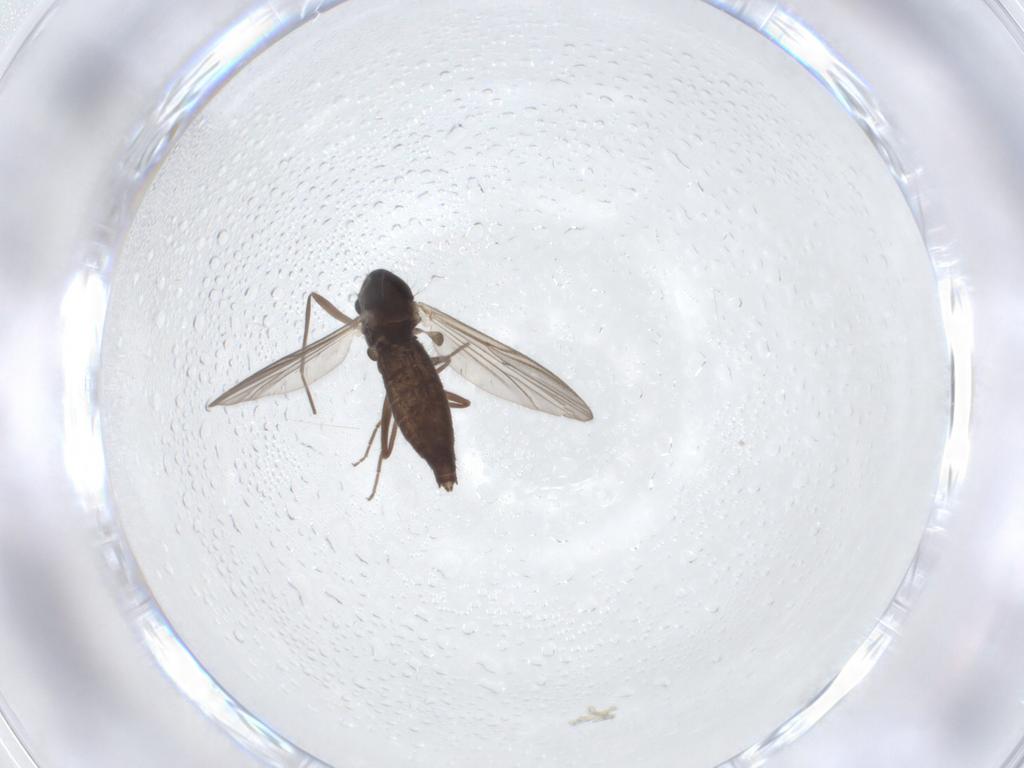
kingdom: Animalia
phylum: Arthropoda
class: Insecta
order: Diptera
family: Chironomidae
